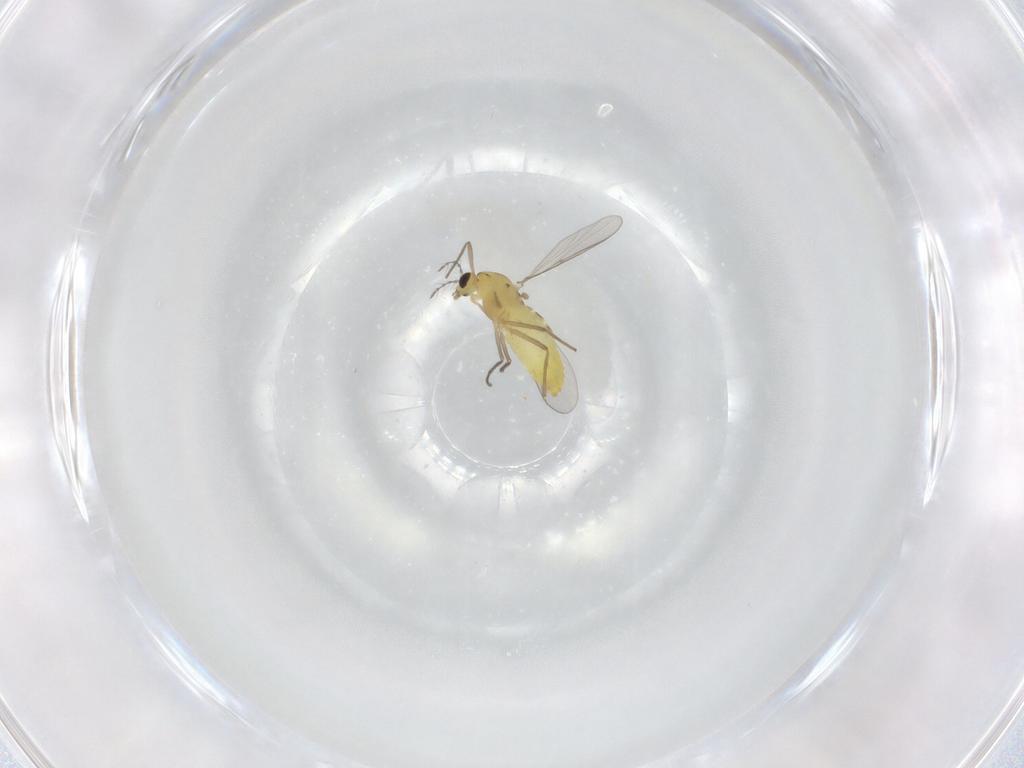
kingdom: Animalia
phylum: Arthropoda
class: Insecta
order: Diptera
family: Chironomidae
